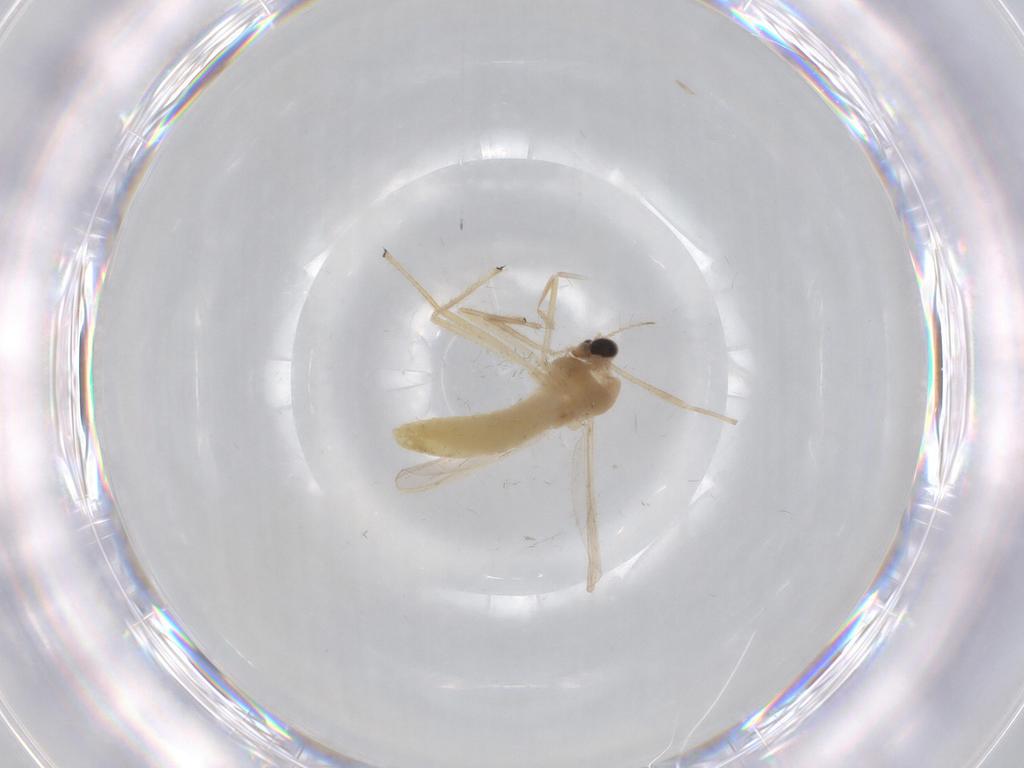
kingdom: Animalia
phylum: Arthropoda
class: Insecta
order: Diptera
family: Chironomidae
